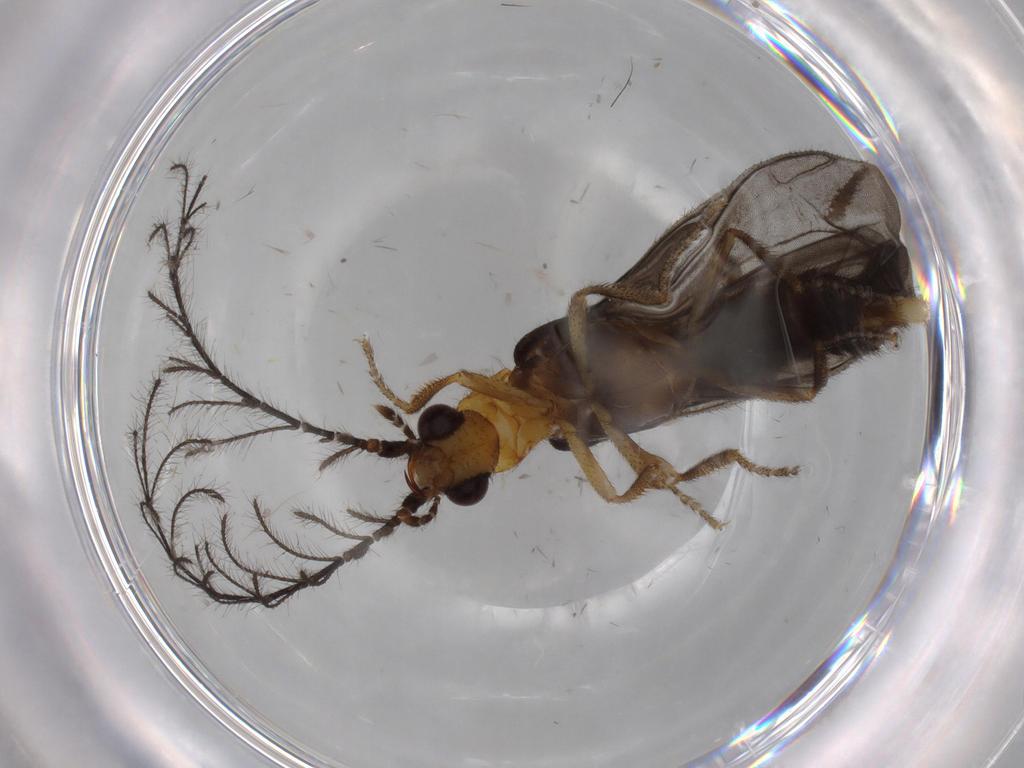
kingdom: Animalia
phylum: Arthropoda
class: Insecta
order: Coleoptera
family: Phengodidae
